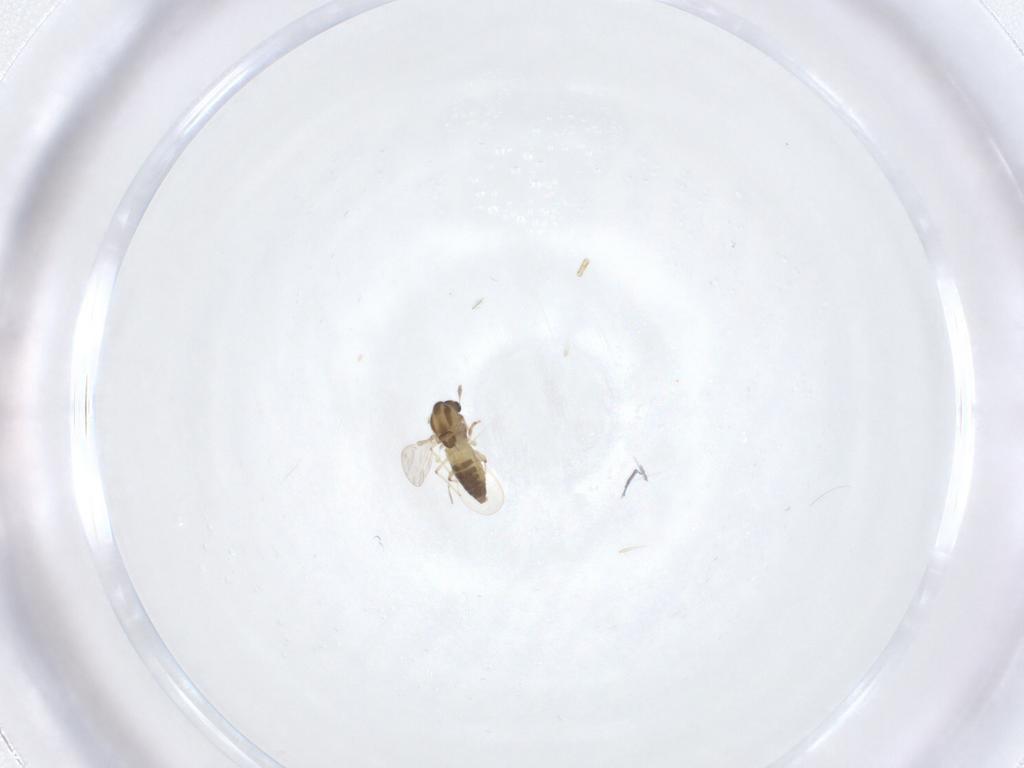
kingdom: Animalia
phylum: Arthropoda
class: Insecta
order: Diptera
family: Chironomidae
